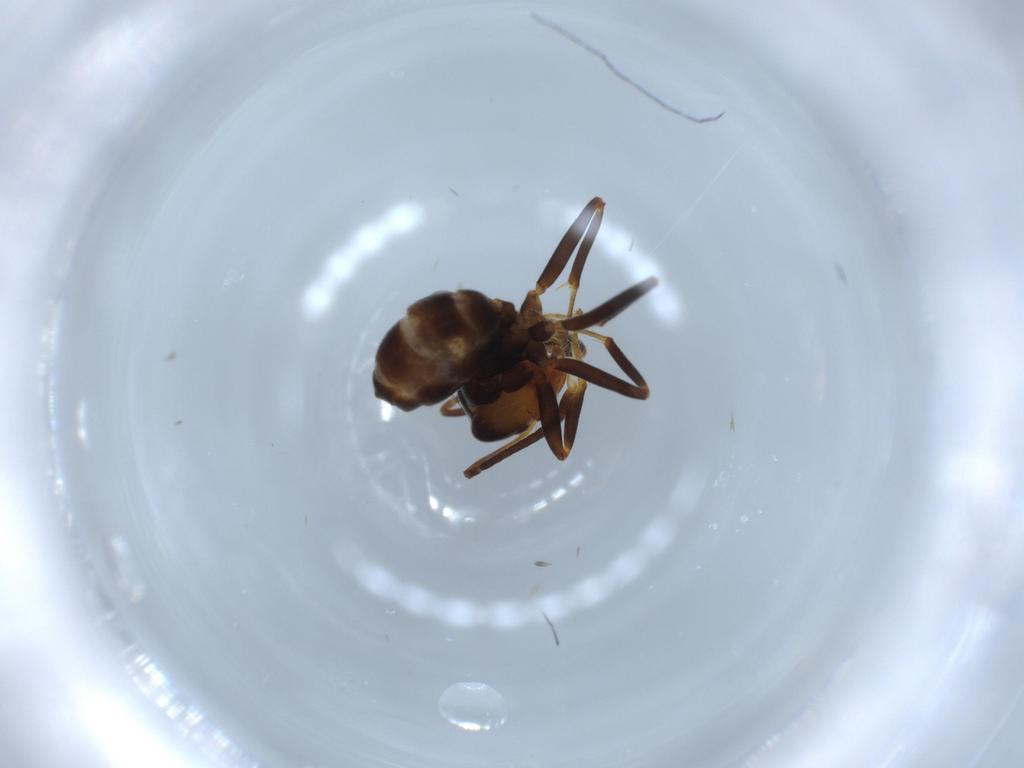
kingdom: Animalia
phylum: Arthropoda
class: Insecta
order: Hymenoptera
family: Formicidae
